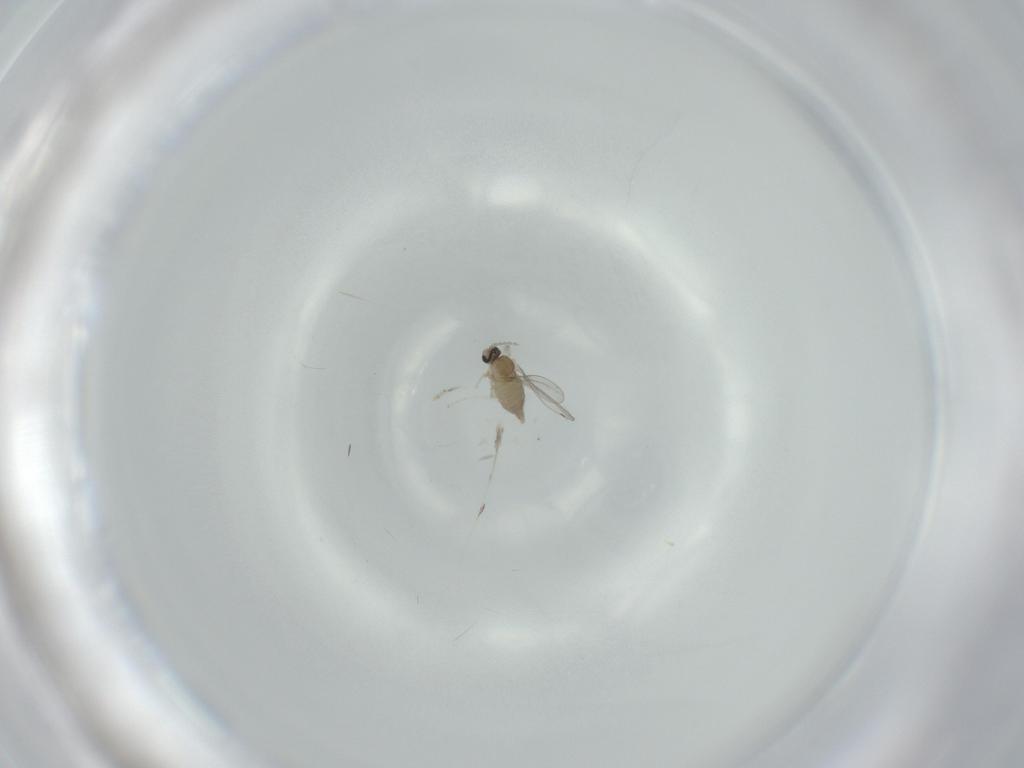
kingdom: Animalia
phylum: Arthropoda
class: Insecta
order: Diptera
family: Cecidomyiidae
